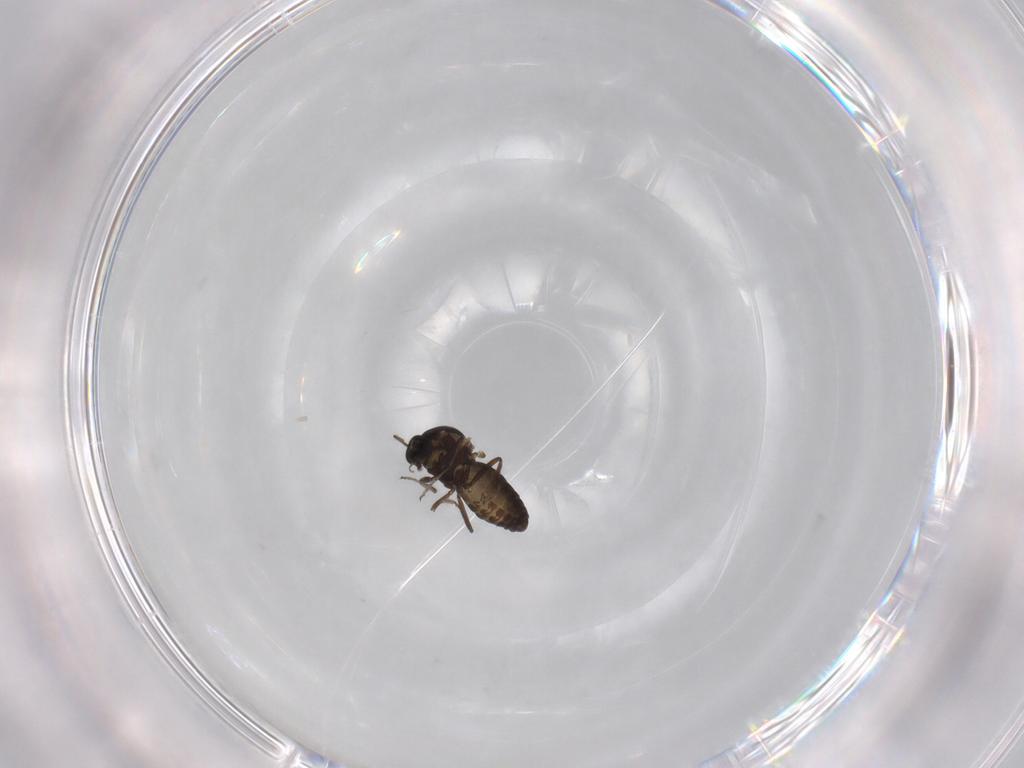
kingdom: Animalia
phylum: Arthropoda
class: Insecta
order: Diptera
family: Ceratopogonidae
